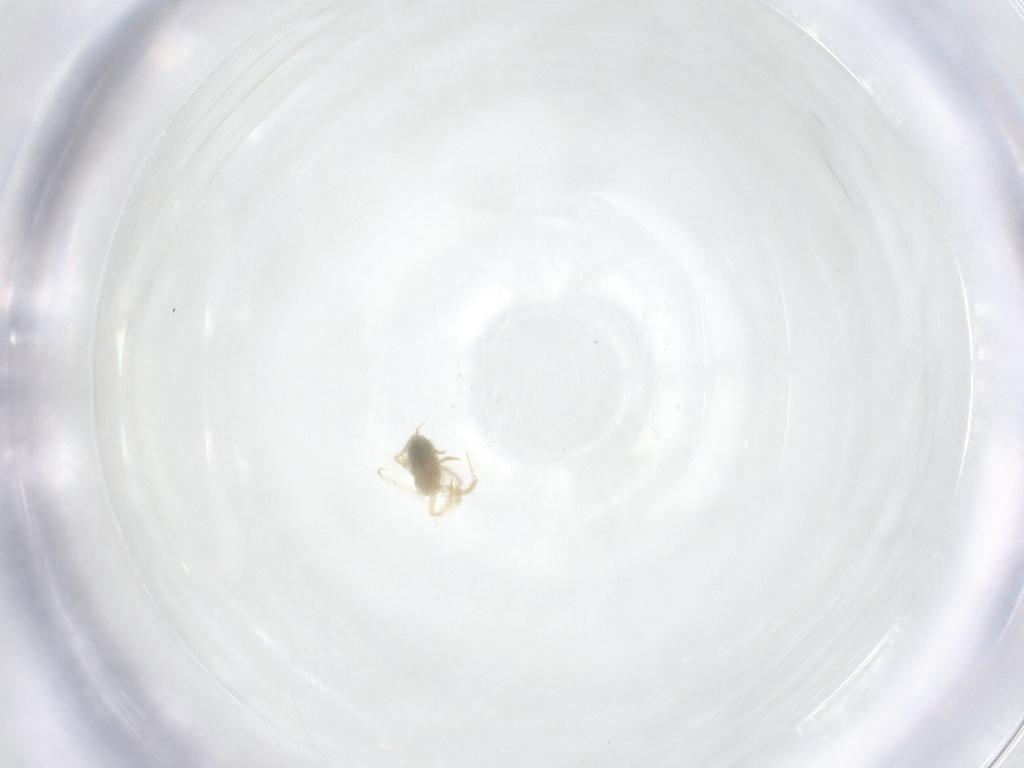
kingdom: Animalia
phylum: Arthropoda
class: Arachnida
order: Trombidiformes
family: Anystidae
